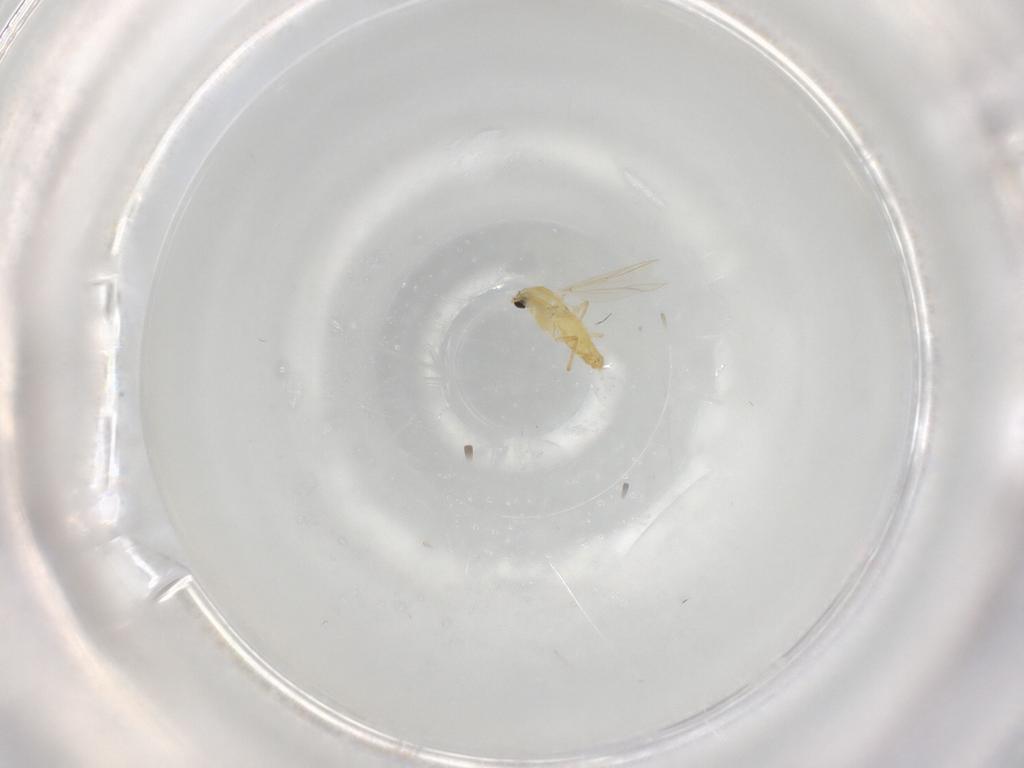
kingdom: Animalia
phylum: Arthropoda
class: Insecta
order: Diptera
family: Chironomidae
